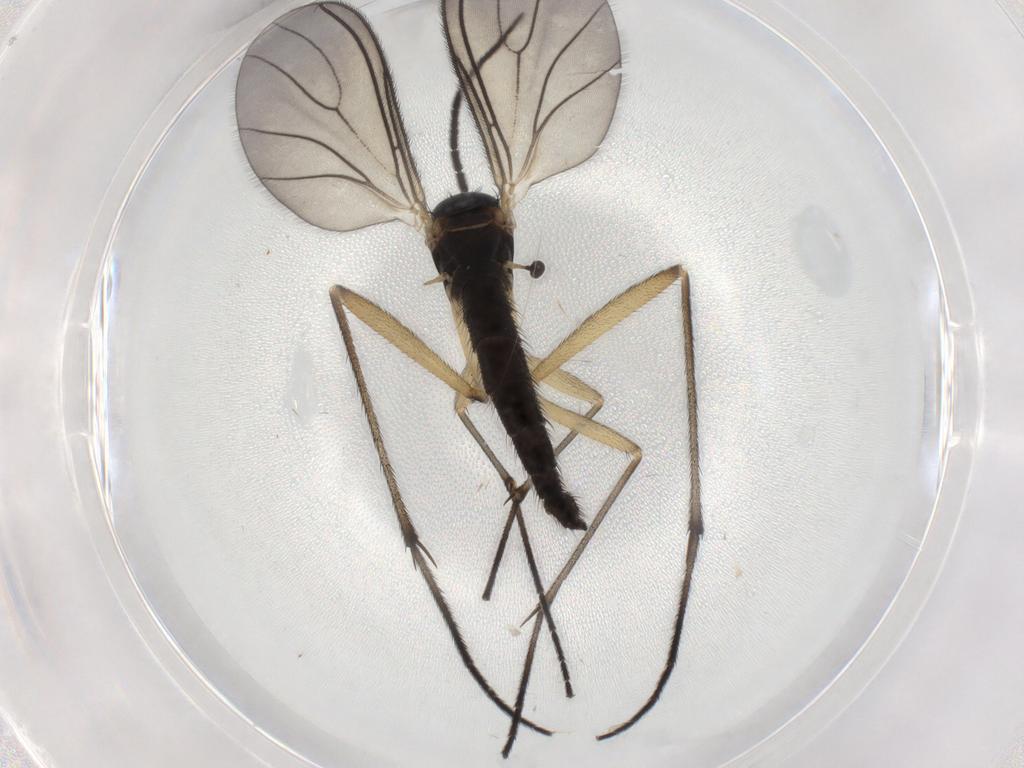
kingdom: Animalia
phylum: Arthropoda
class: Insecta
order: Diptera
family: Sciaridae
